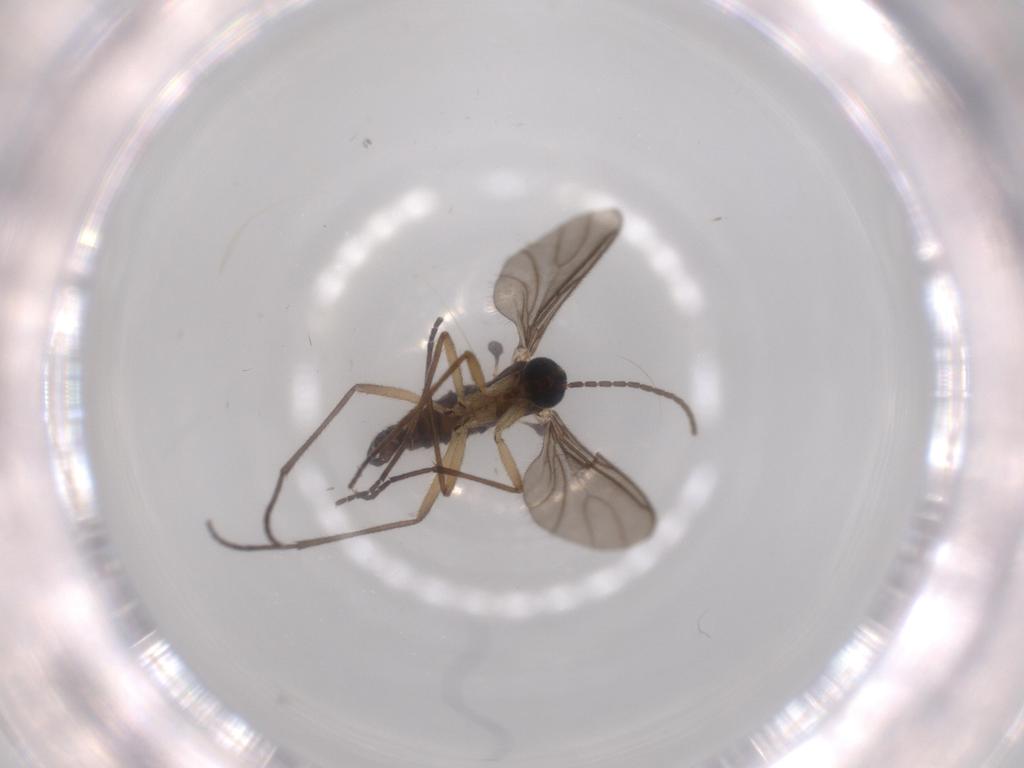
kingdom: Animalia
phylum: Arthropoda
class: Insecta
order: Diptera
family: Sciaridae
